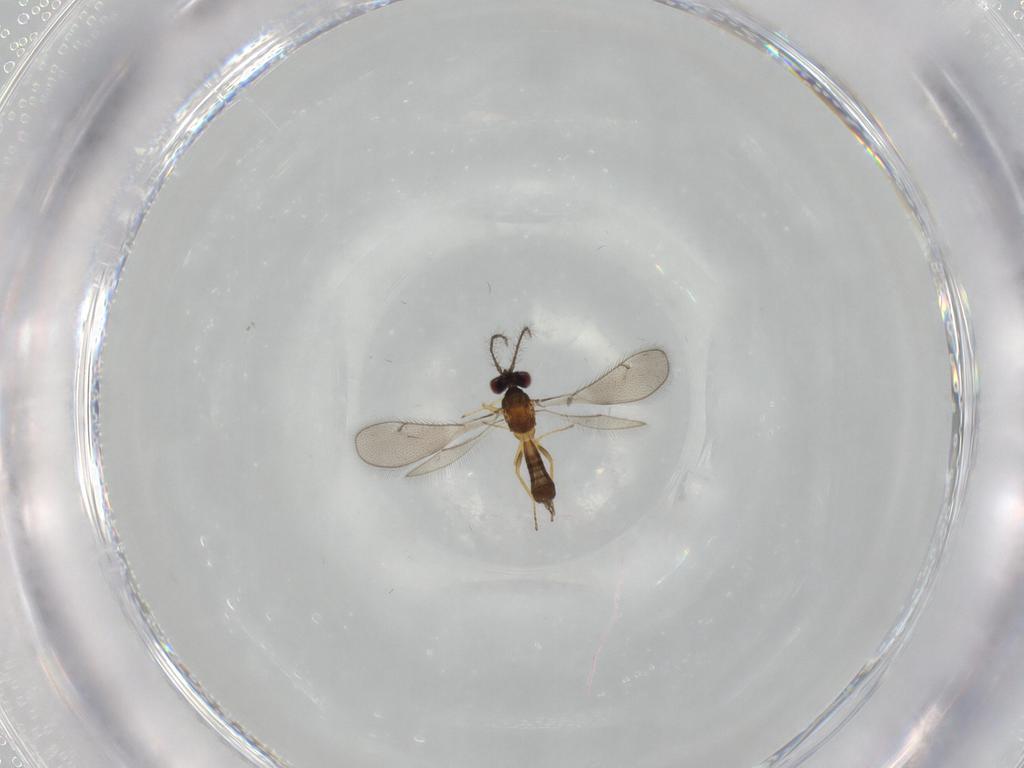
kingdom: Animalia
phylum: Arthropoda
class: Insecta
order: Hymenoptera
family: Eulophidae
